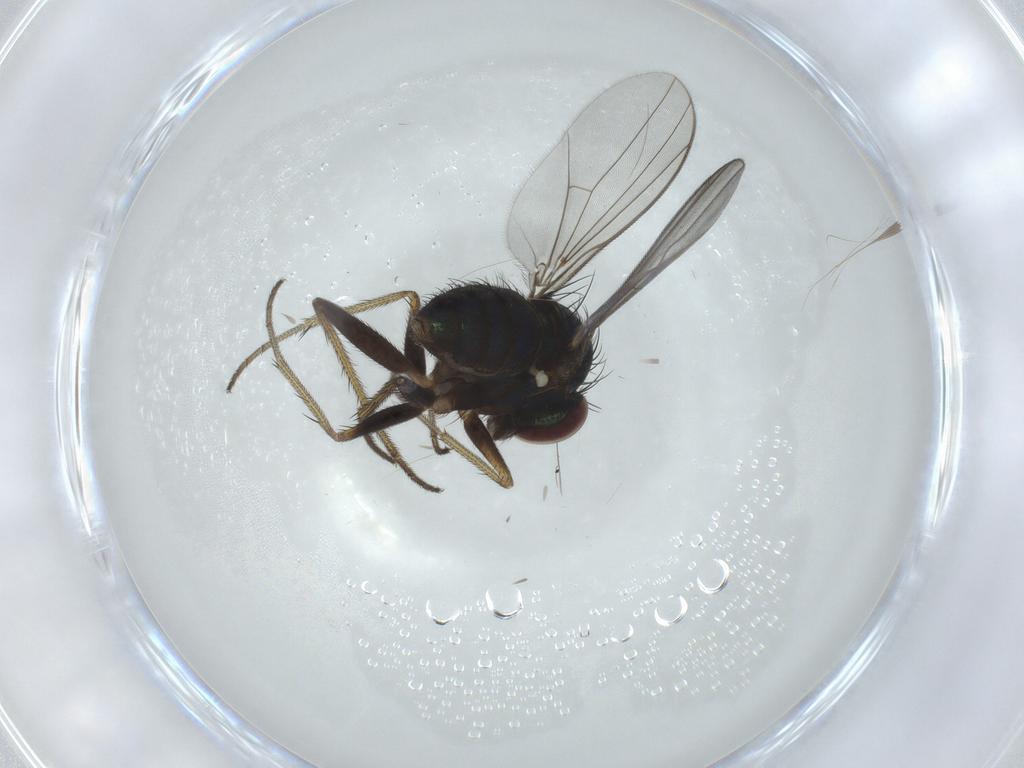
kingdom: Animalia
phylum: Arthropoda
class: Insecta
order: Diptera
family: Dolichopodidae
